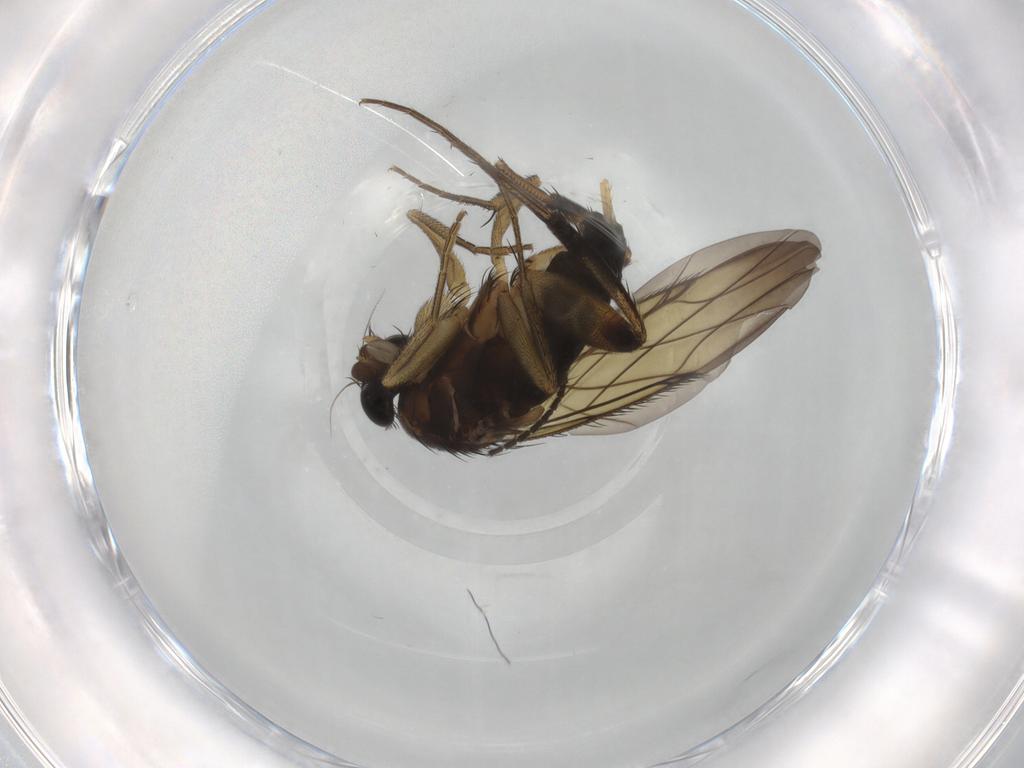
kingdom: Animalia
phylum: Arthropoda
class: Insecta
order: Diptera
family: Phoridae
